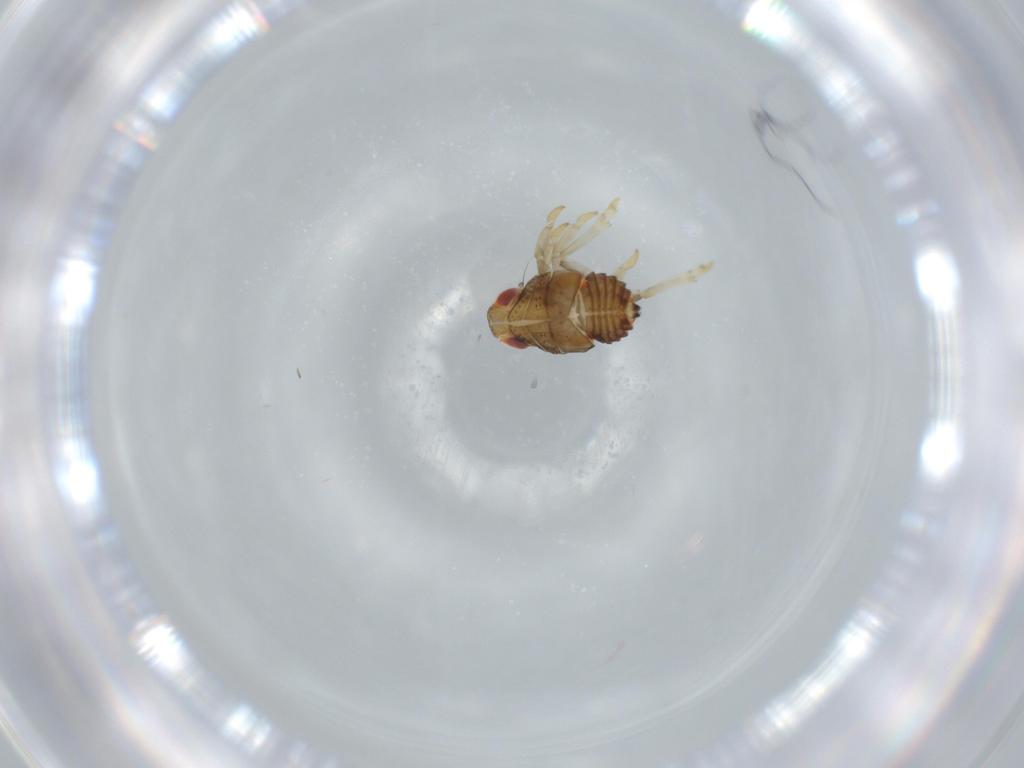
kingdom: Animalia
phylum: Arthropoda
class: Insecta
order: Hemiptera
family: Issidae
